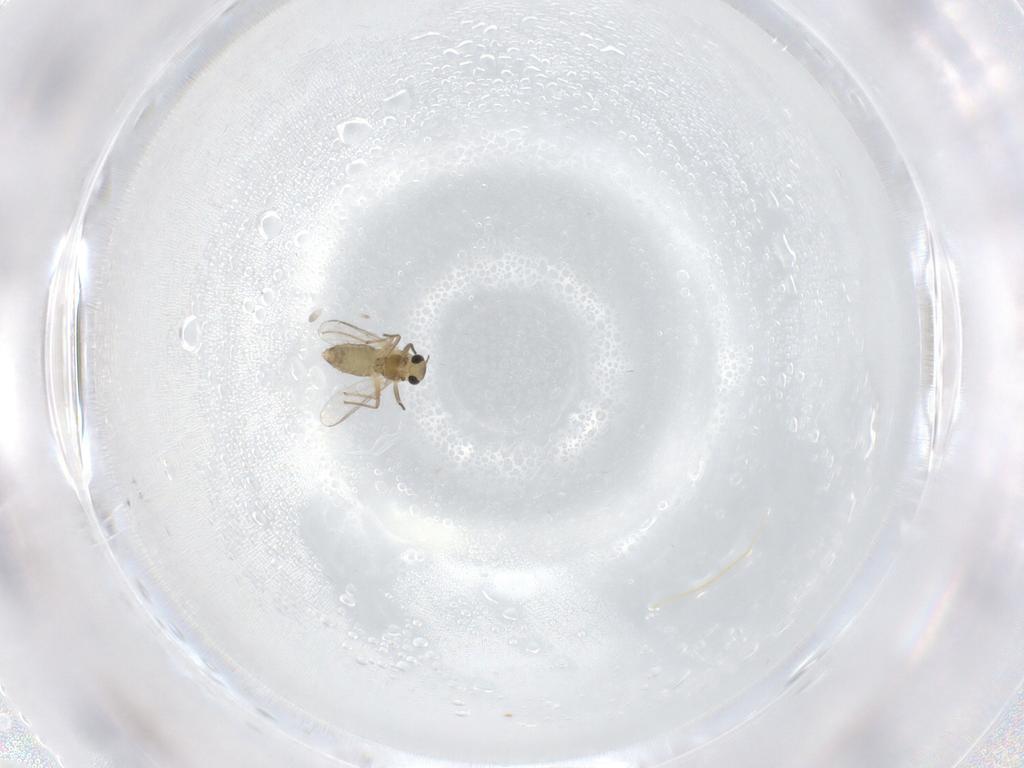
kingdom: Animalia
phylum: Arthropoda
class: Insecta
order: Diptera
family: Chironomidae
